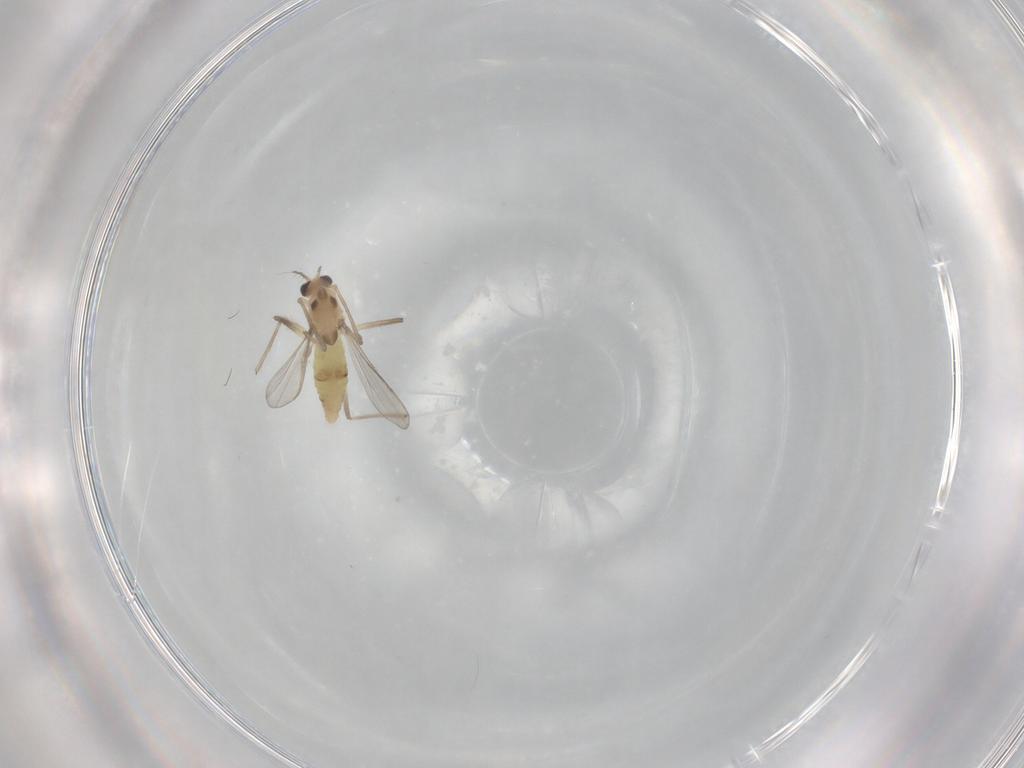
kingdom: Animalia
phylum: Arthropoda
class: Insecta
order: Diptera
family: Chironomidae
